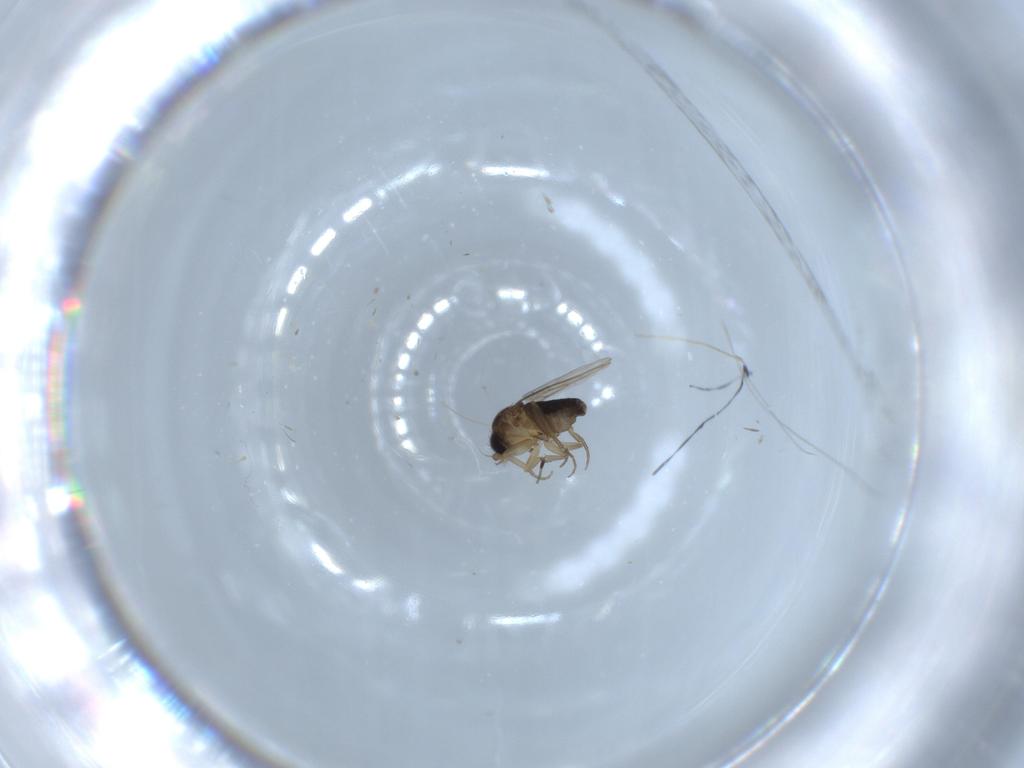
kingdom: Animalia
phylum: Arthropoda
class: Insecta
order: Diptera
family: Phoridae
